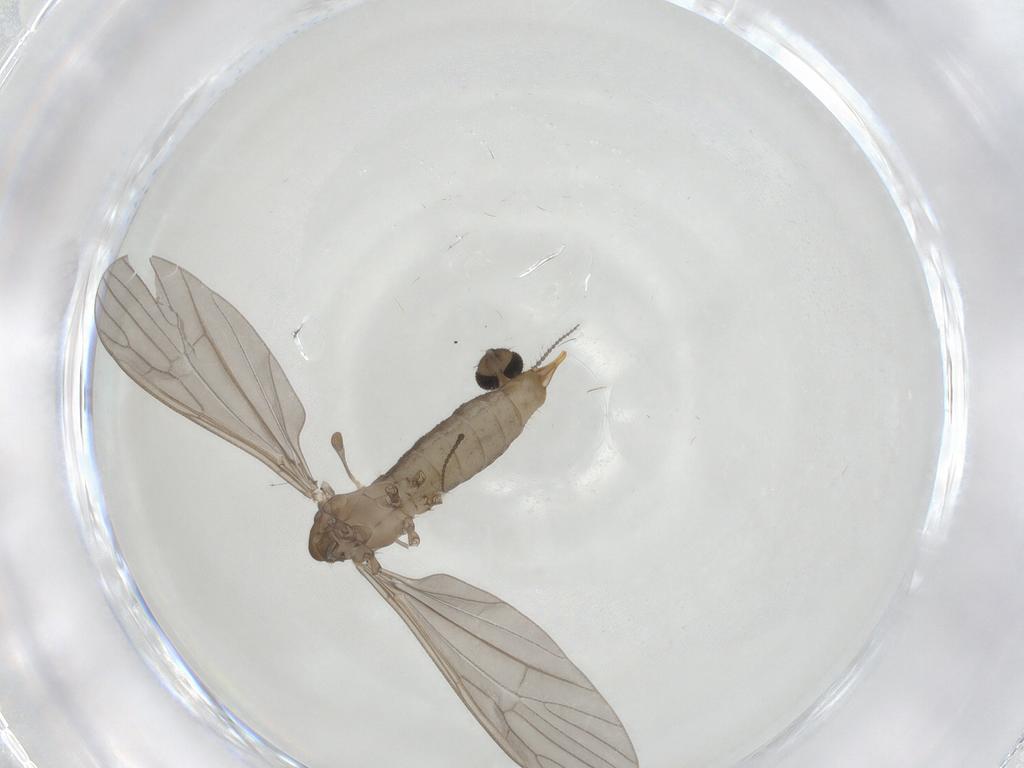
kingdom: Animalia
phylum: Arthropoda
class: Insecta
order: Diptera
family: Limoniidae
